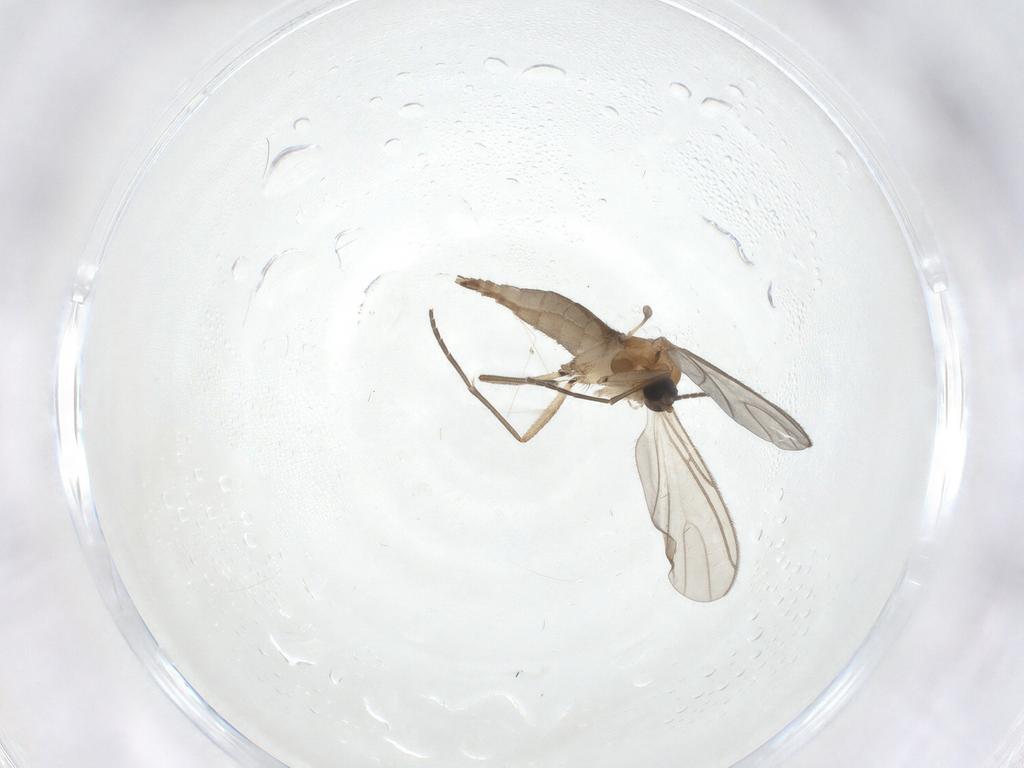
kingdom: Animalia
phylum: Arthropoda
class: Insecta
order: Diptera
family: Sciaridae
